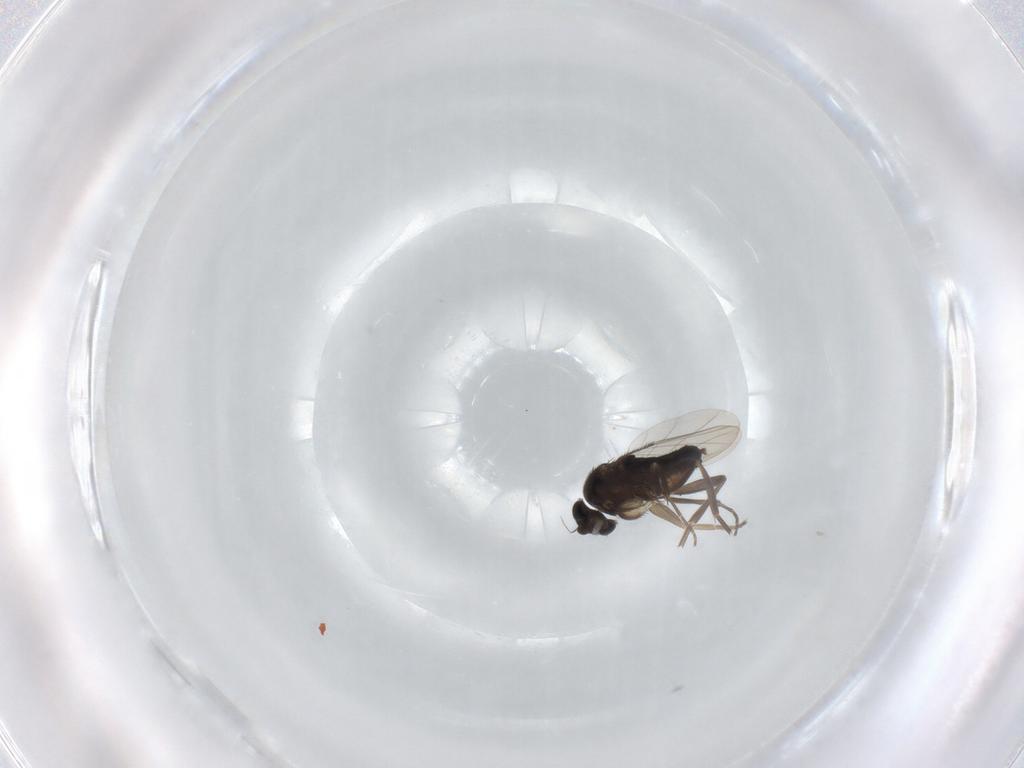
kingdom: Animalia
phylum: Arthropoda
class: Insecta
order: Diptera
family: Phoridae
